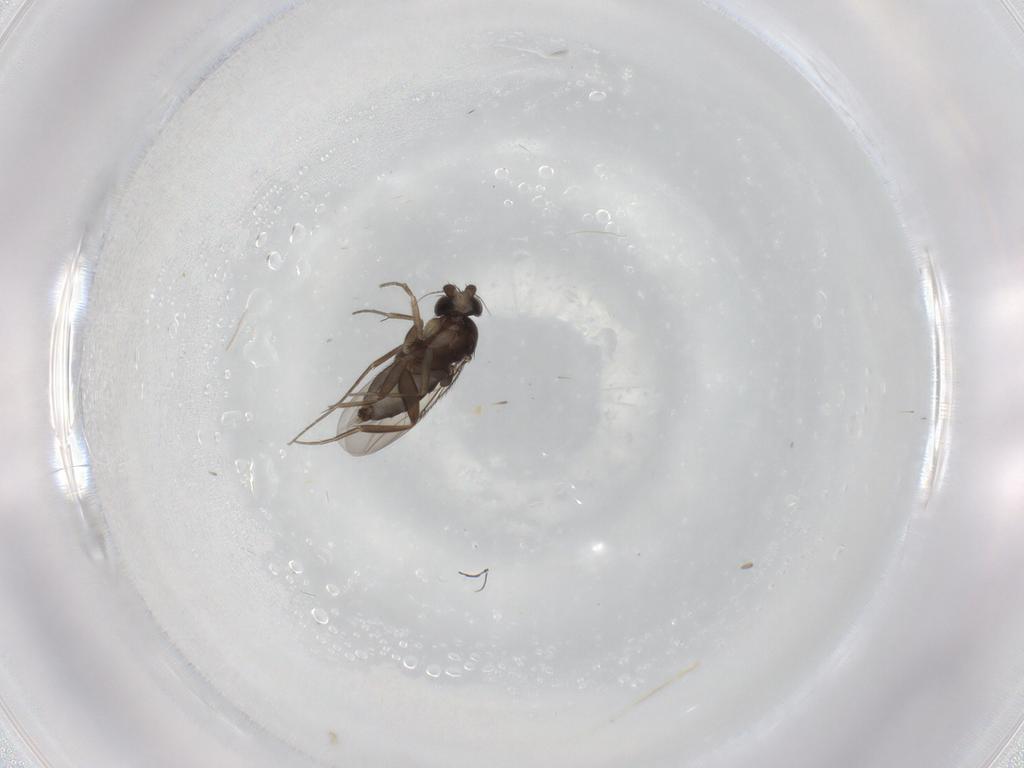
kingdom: Animalia
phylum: Arthropoda
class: Insecta
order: Diptera
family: Phoridae
